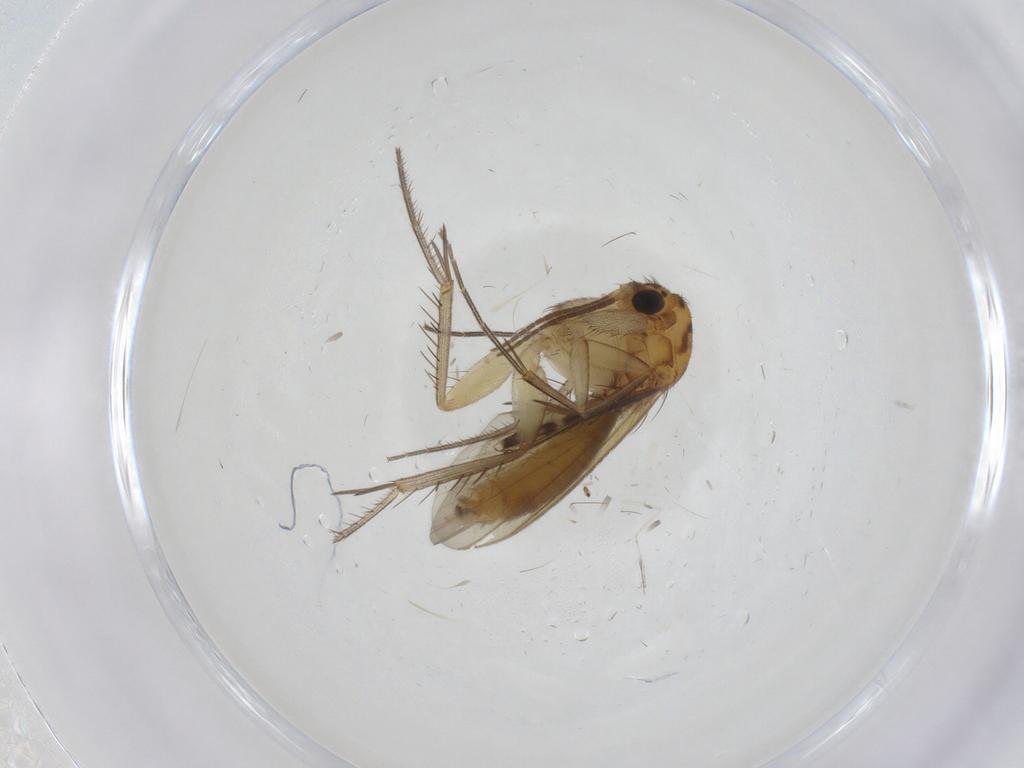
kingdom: Animalia
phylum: Arthropoda
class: Insecta
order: Diptera
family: Mycetophilidae
